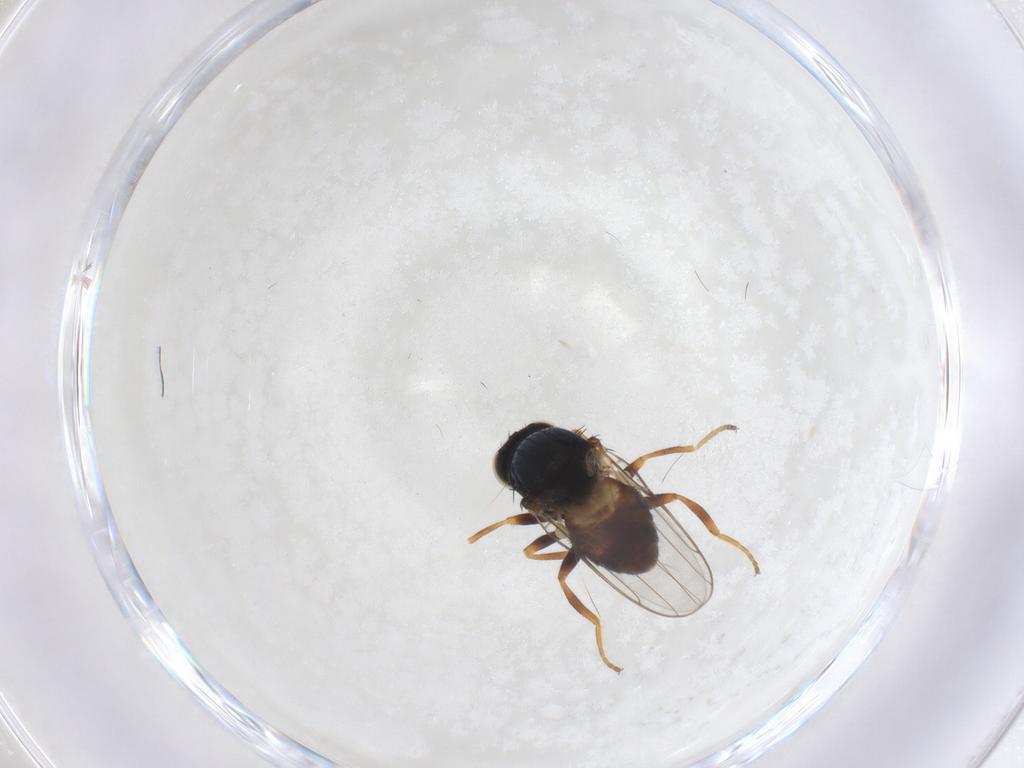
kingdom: Animalia
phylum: Arthropoda
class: Insecta
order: Diptera
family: Chloropidae
